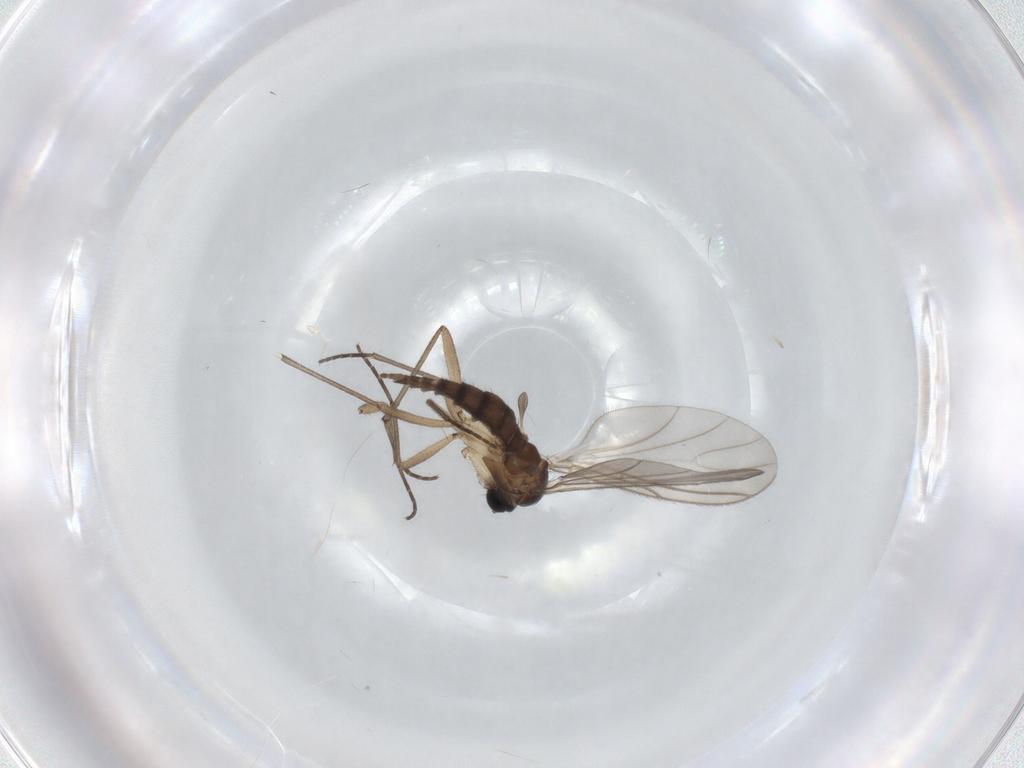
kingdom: Animalia
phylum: Arthropoda
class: Insecta
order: Diptera
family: Sciaridae
